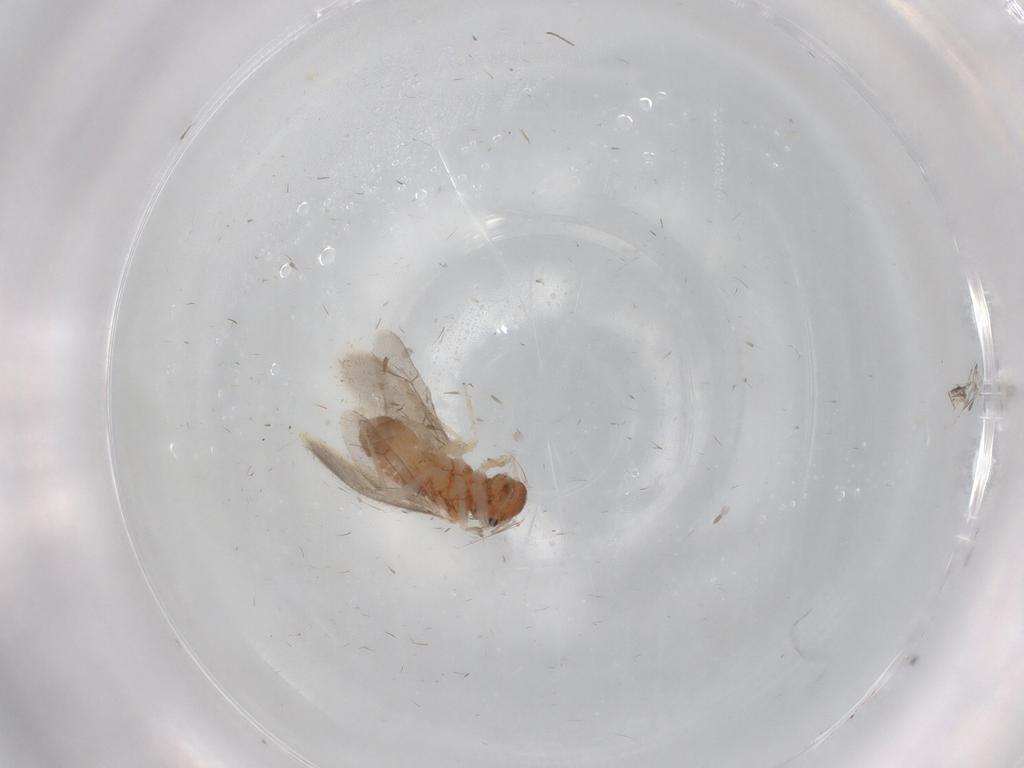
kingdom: Animalia
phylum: Arthropoda
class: Insecta
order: Psocodea
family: Archipsocidae
